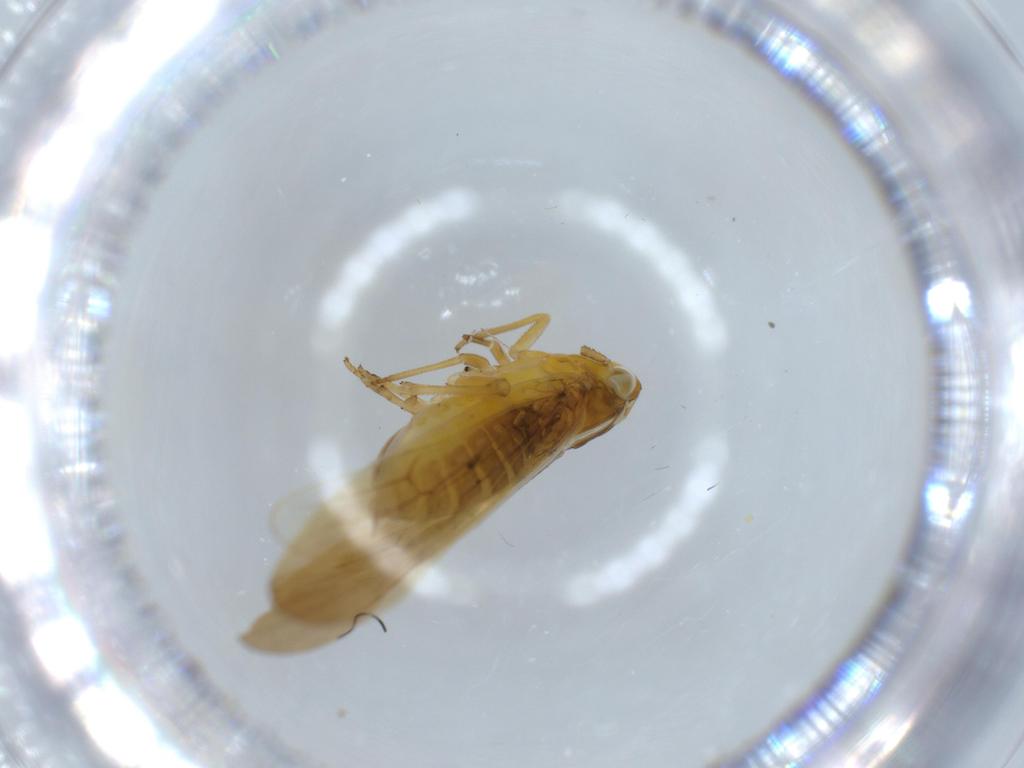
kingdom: Animalia
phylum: Arthropoda
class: Insecta
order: Hemiptera
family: Delphacidae
